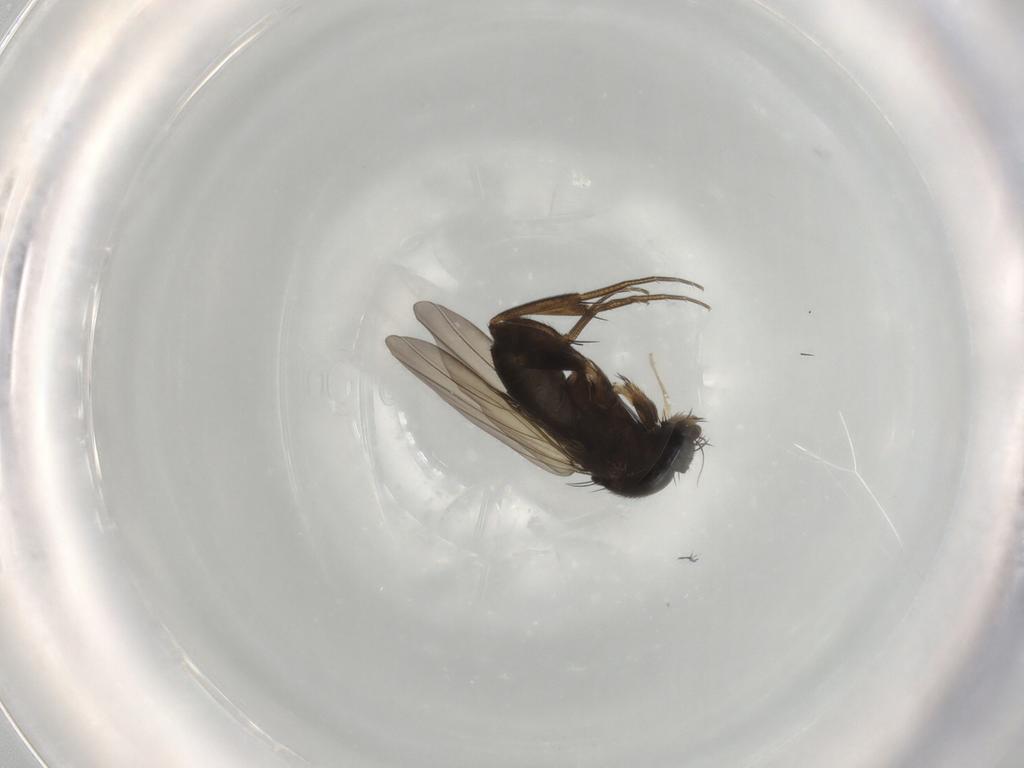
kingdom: Animalia
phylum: Arthropoda
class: Insecta
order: Diptera
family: Phoridae
